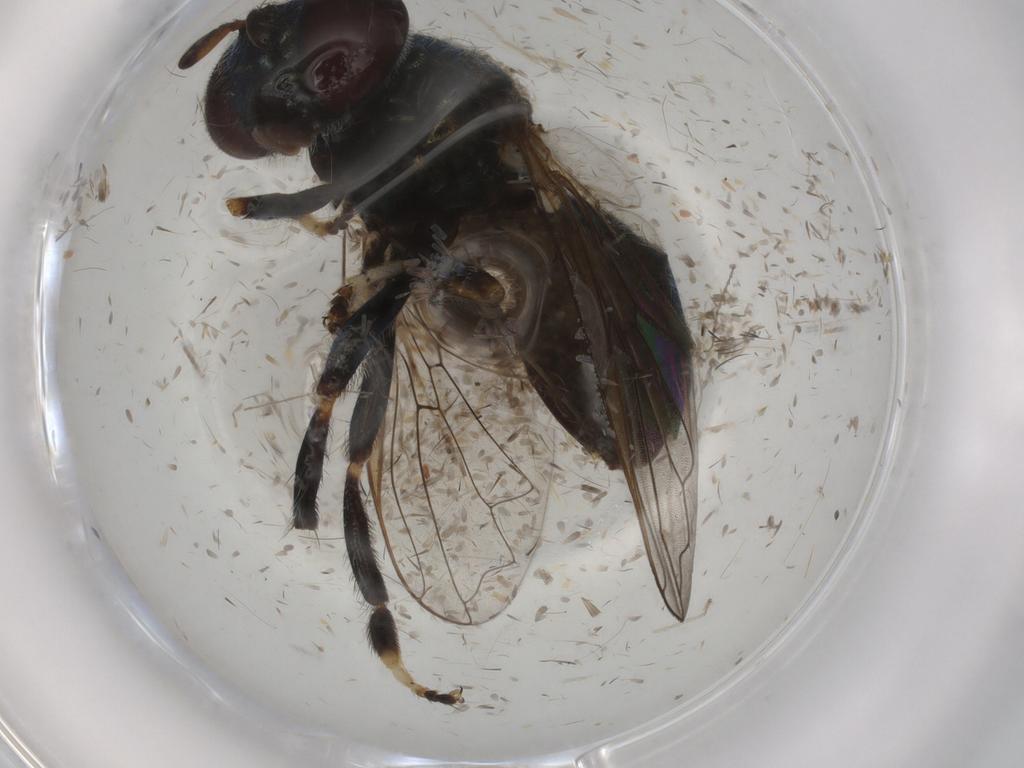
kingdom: Animalia
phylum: Arthropoda
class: Insecta
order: Diptera
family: Syrphidae
